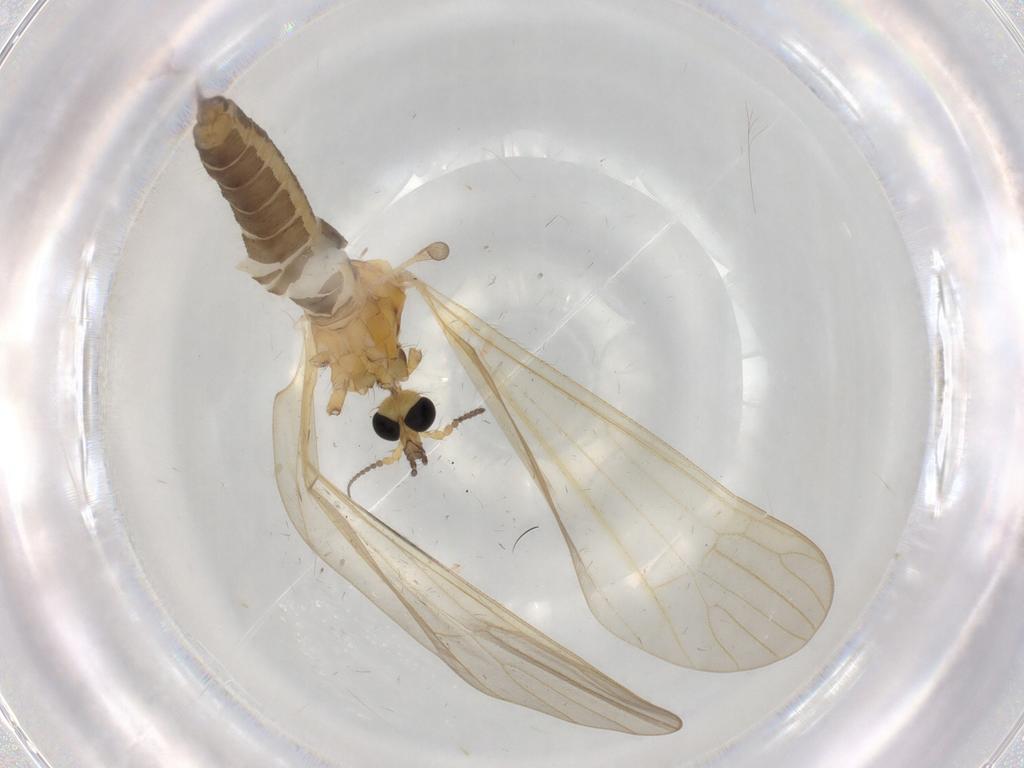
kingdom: Animalia
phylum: Arthropoda
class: Insecta
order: Diptera
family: Limoniidae
